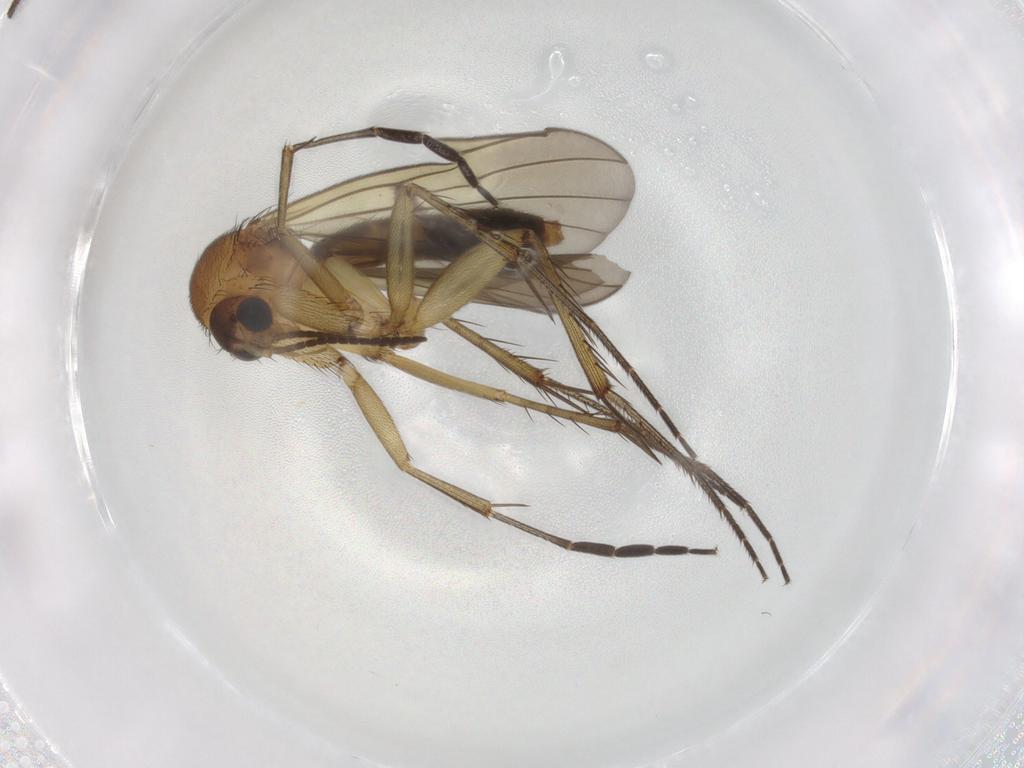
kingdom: Animalia
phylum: Arthropoda
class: Insecta
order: Diptera
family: Mycetophilidae
